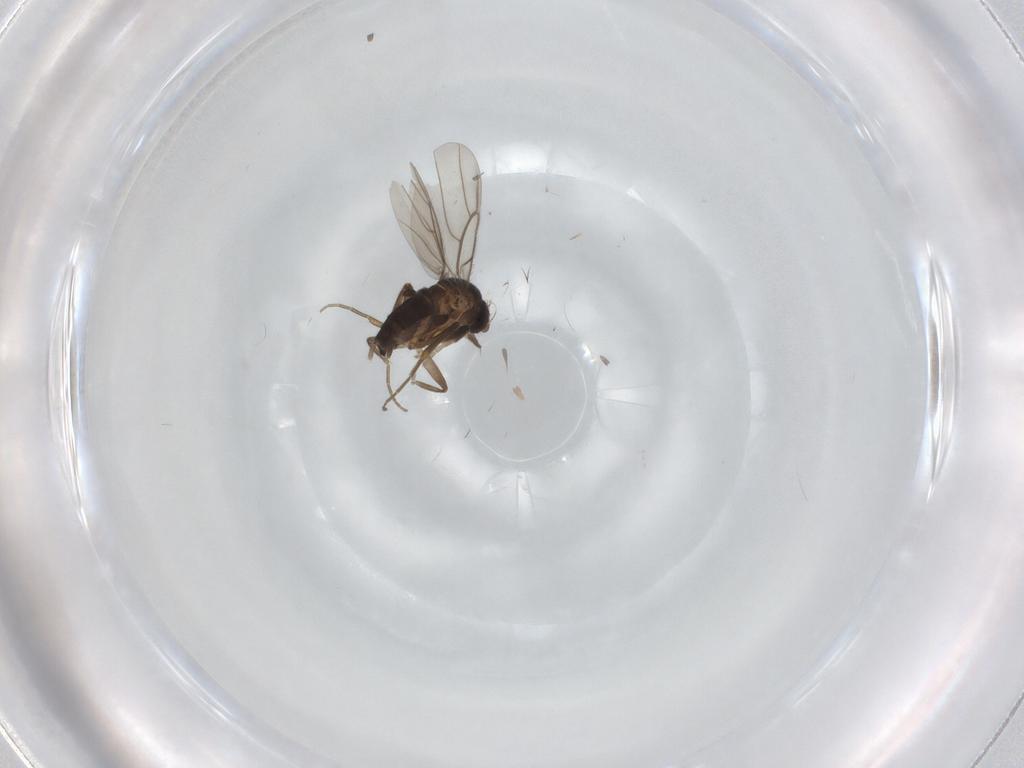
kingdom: Animalia
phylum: Arthropoda
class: Insecta
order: Diptera
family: Phoridae
